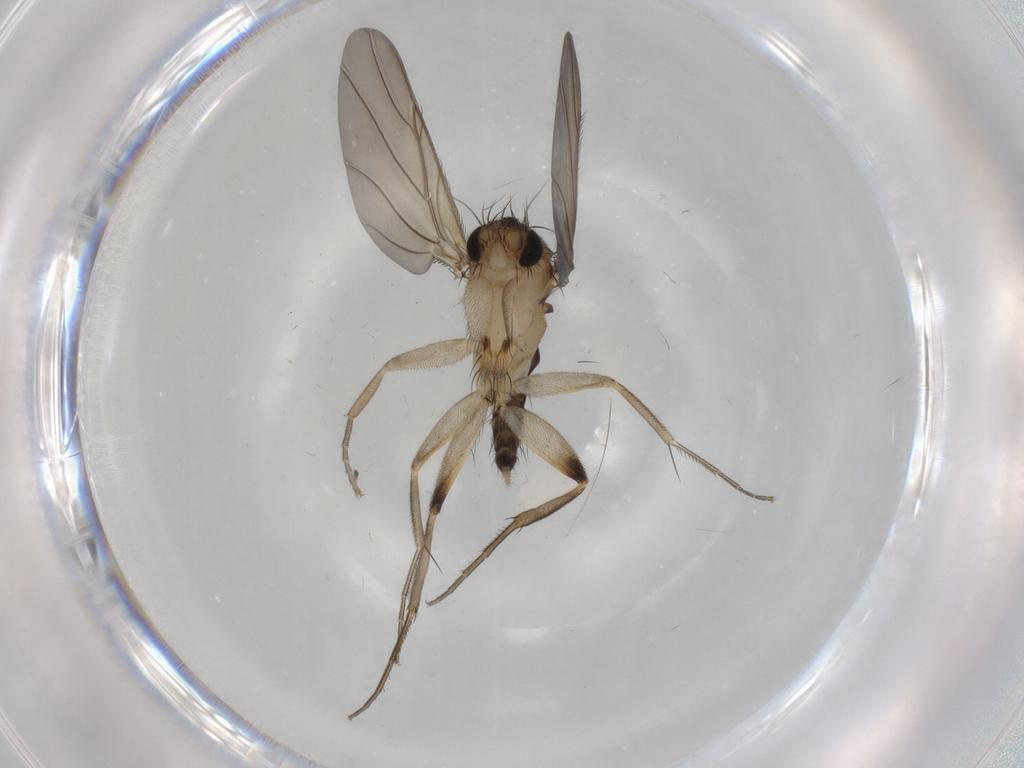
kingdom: Animalia
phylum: Arthropoda
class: Insecta
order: Diptera
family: Phoridae
